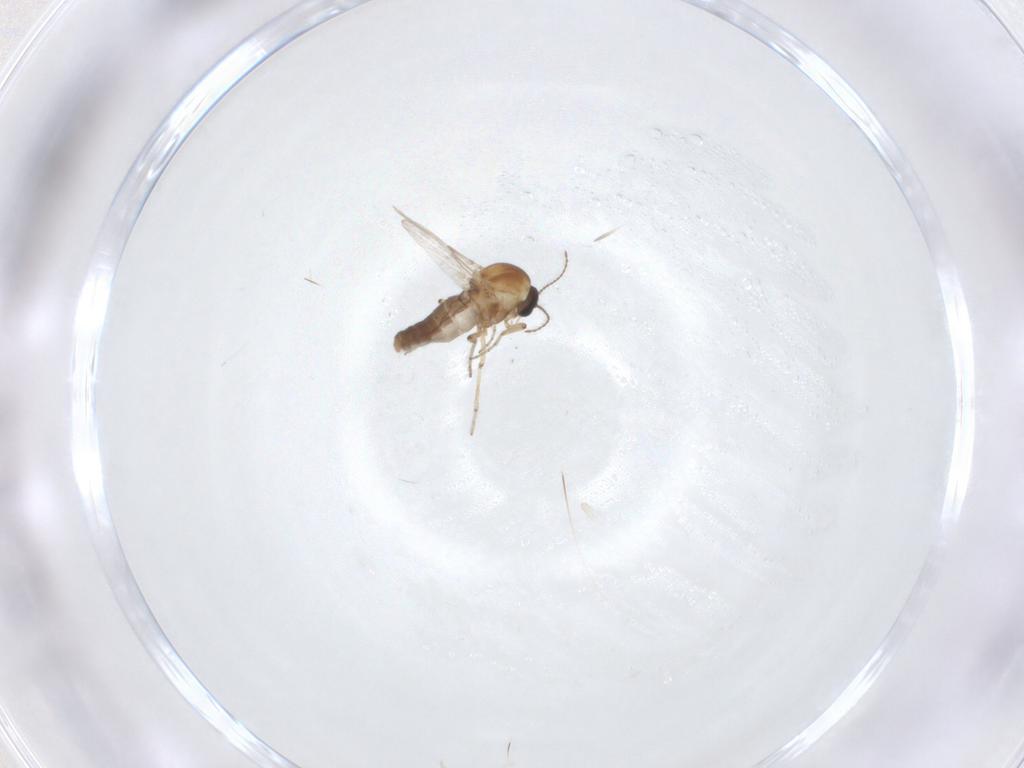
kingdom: Animalia
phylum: Arthropoda
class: Insecta
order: Diptera
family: Ceratopogonidae
